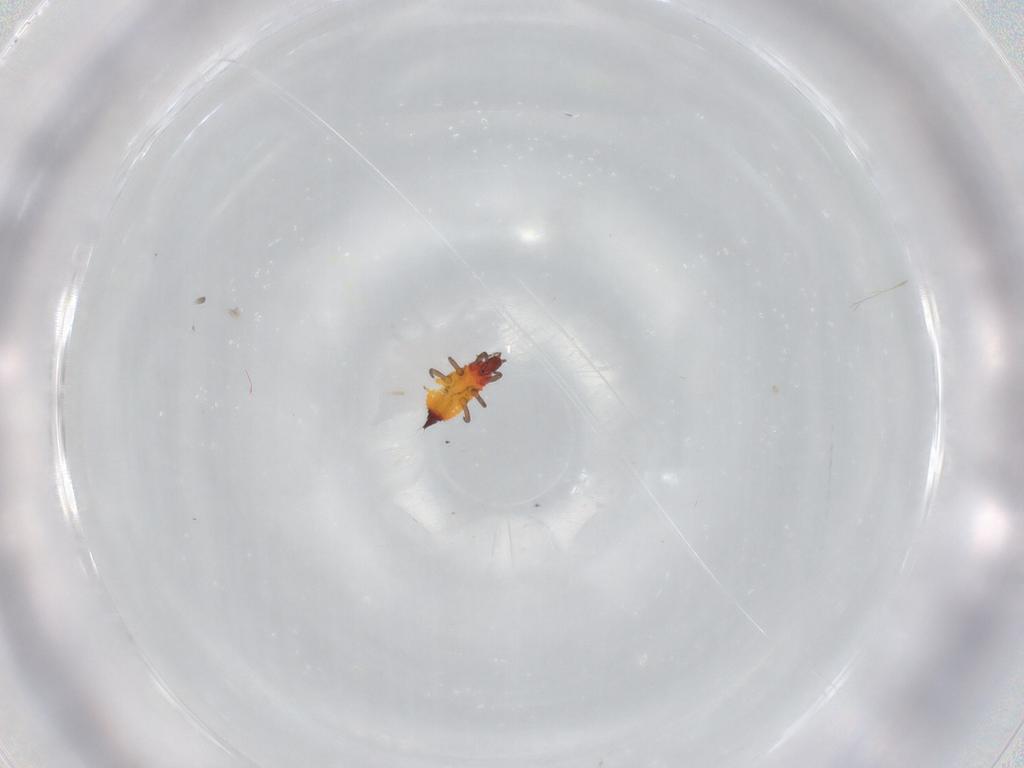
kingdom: Animalia
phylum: Arthropoda
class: Insecta
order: Thysanoptera
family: Phlaeothripidae
